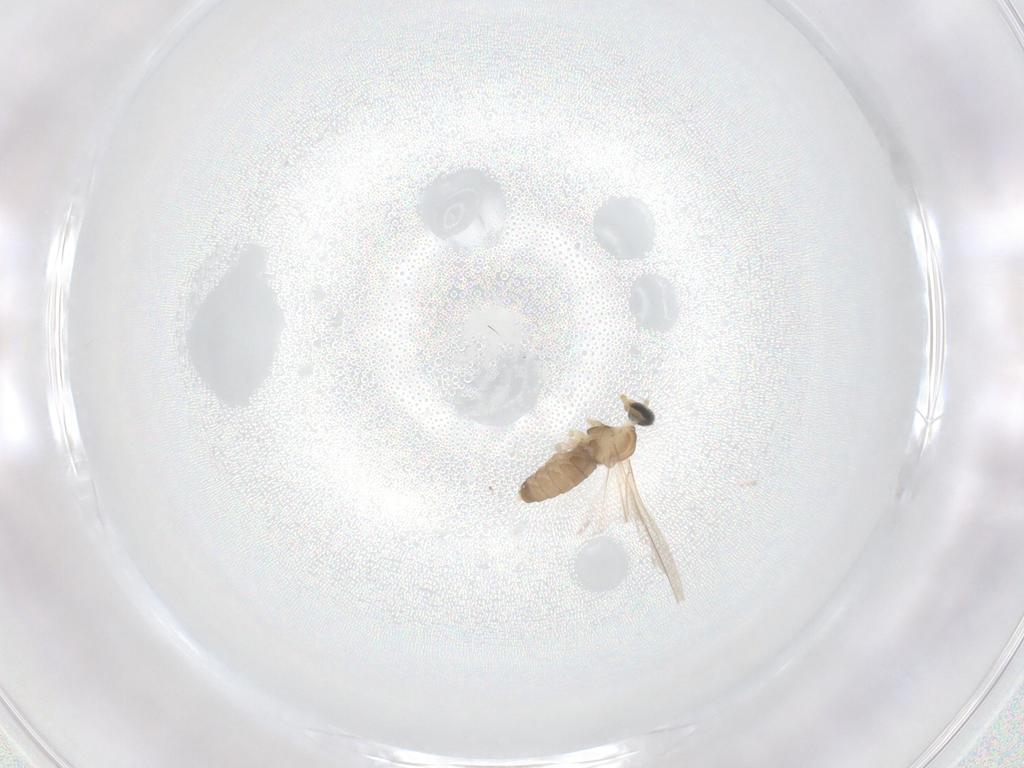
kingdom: Animalia
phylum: Arthropoda
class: Insecta
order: Diptera
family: Cecidomyiidae
